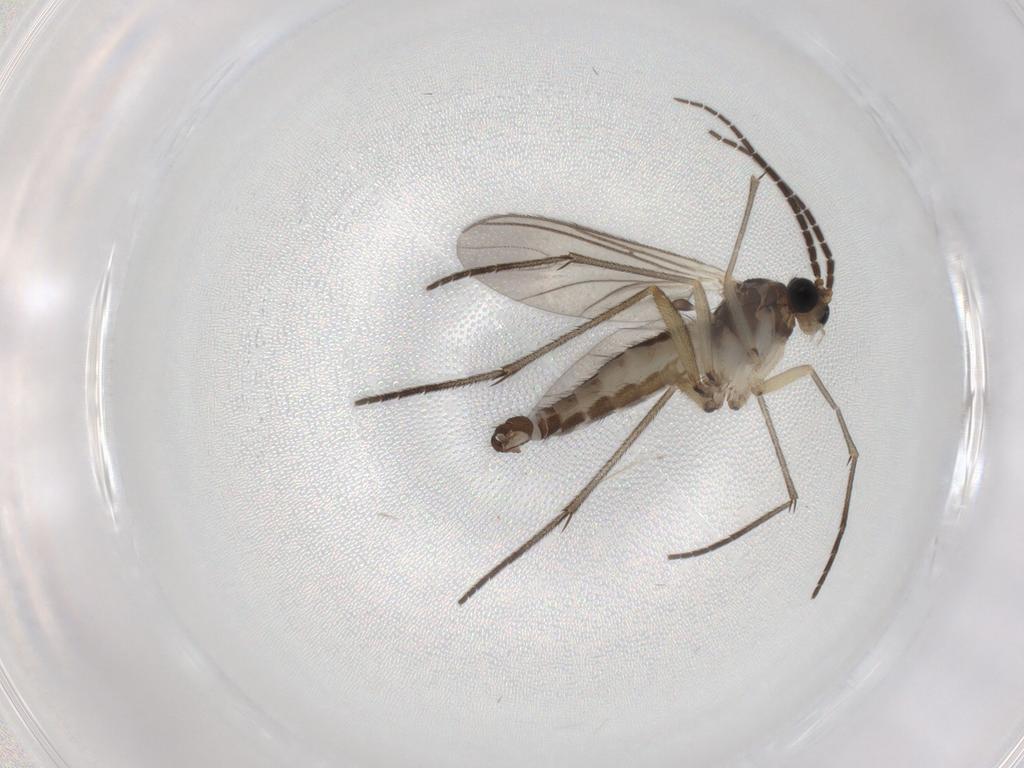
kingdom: Animalia
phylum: Arthropoda
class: Insecta
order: Diptera
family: Sciaridae
